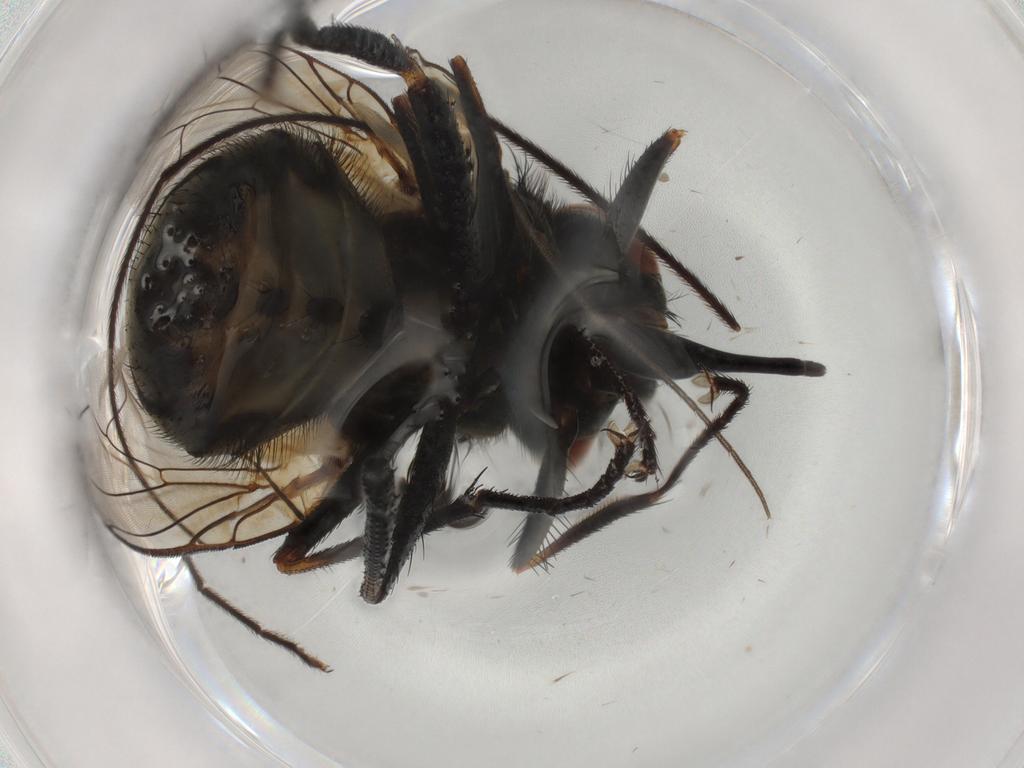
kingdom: Animalia
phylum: Arthropoda
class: Insecta
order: Diptera
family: Muscidae
